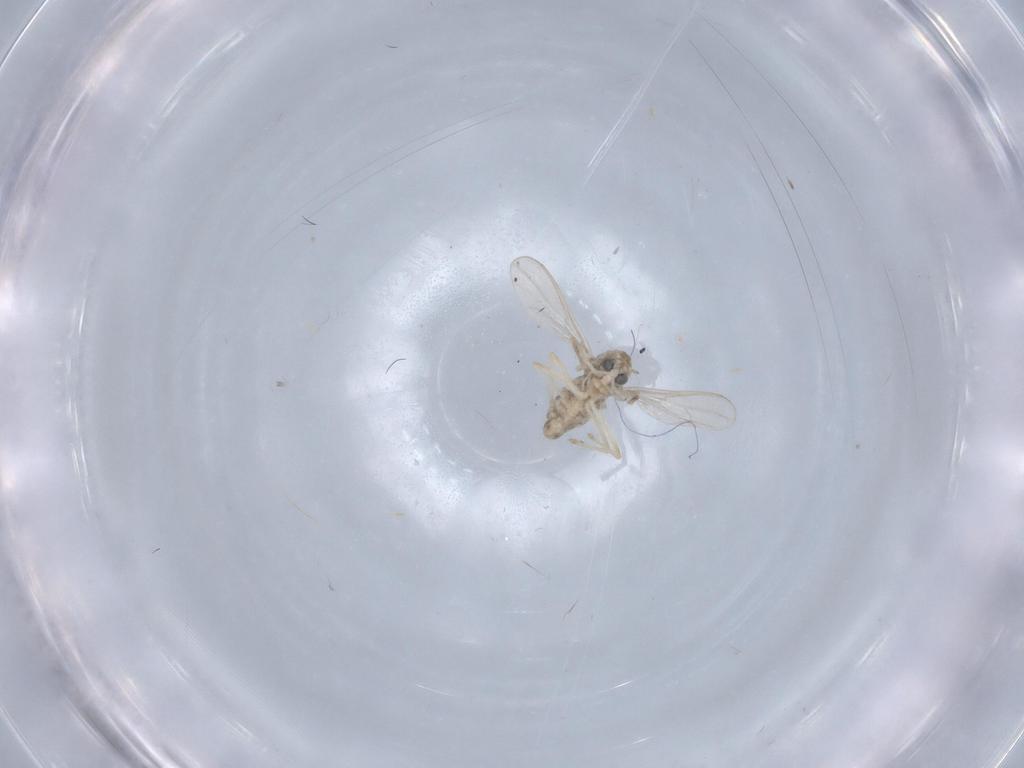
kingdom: Animalia
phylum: Arthropoda
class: Insecta
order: Diptera
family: Chironomidae
